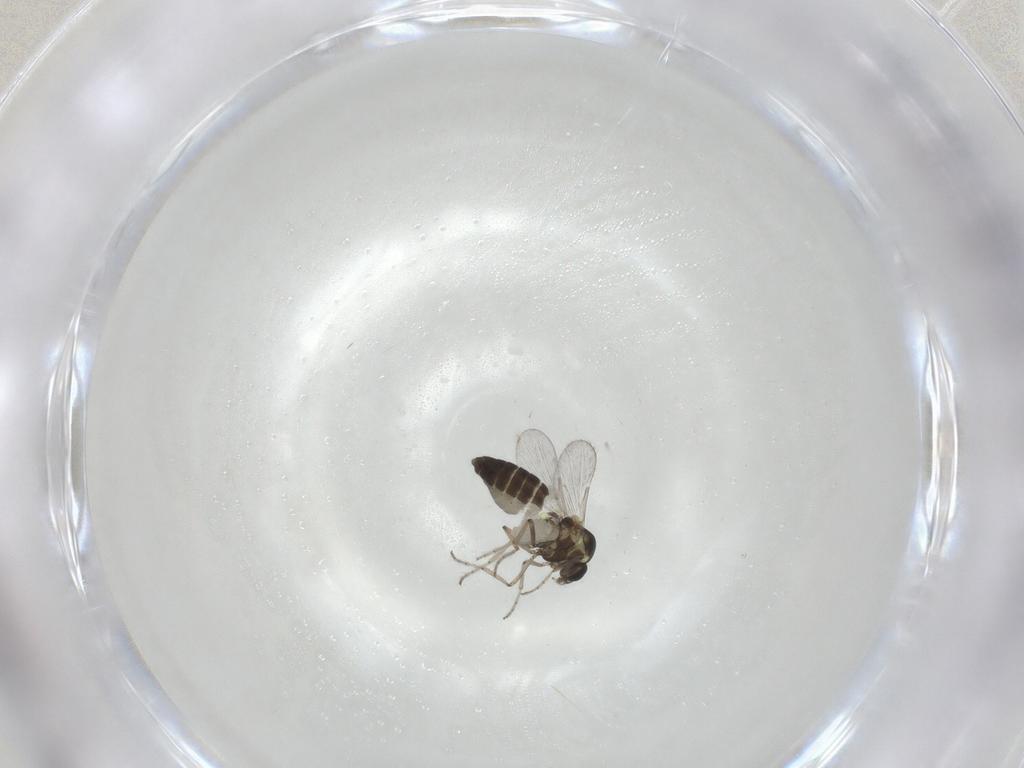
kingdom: Animalia
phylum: Arthropoda
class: Insecta
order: Diptera
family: Ceratopogonidae
